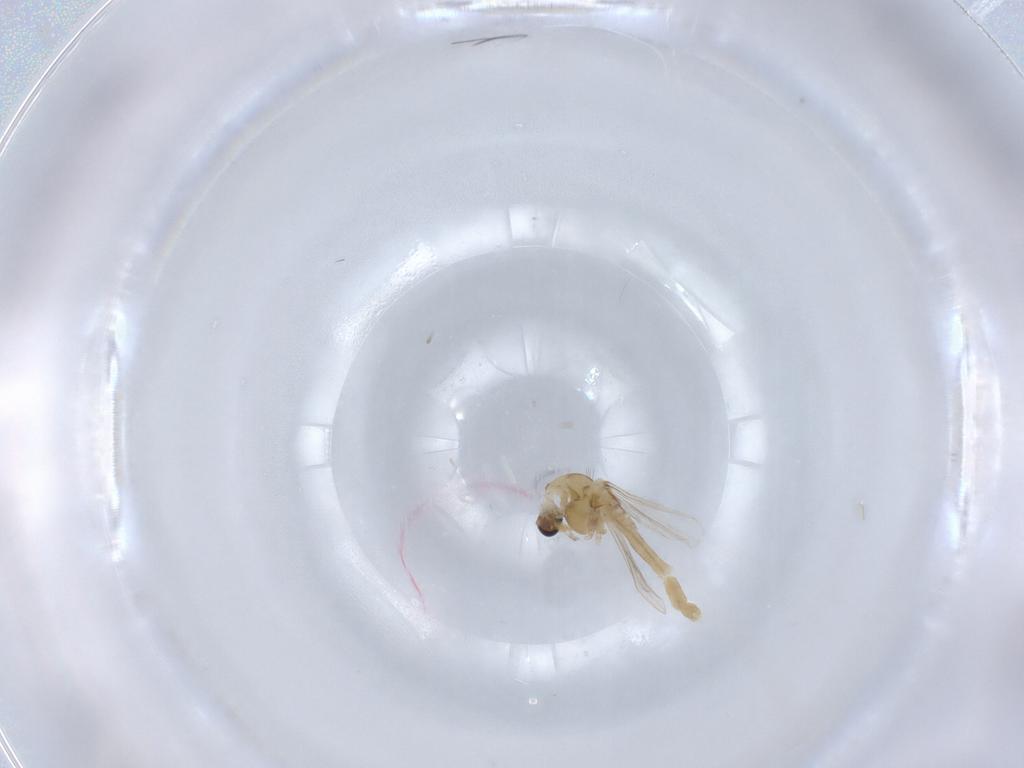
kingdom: Animalia
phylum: Arthropoda
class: Insecta
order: Diptera
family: Chironomidae
